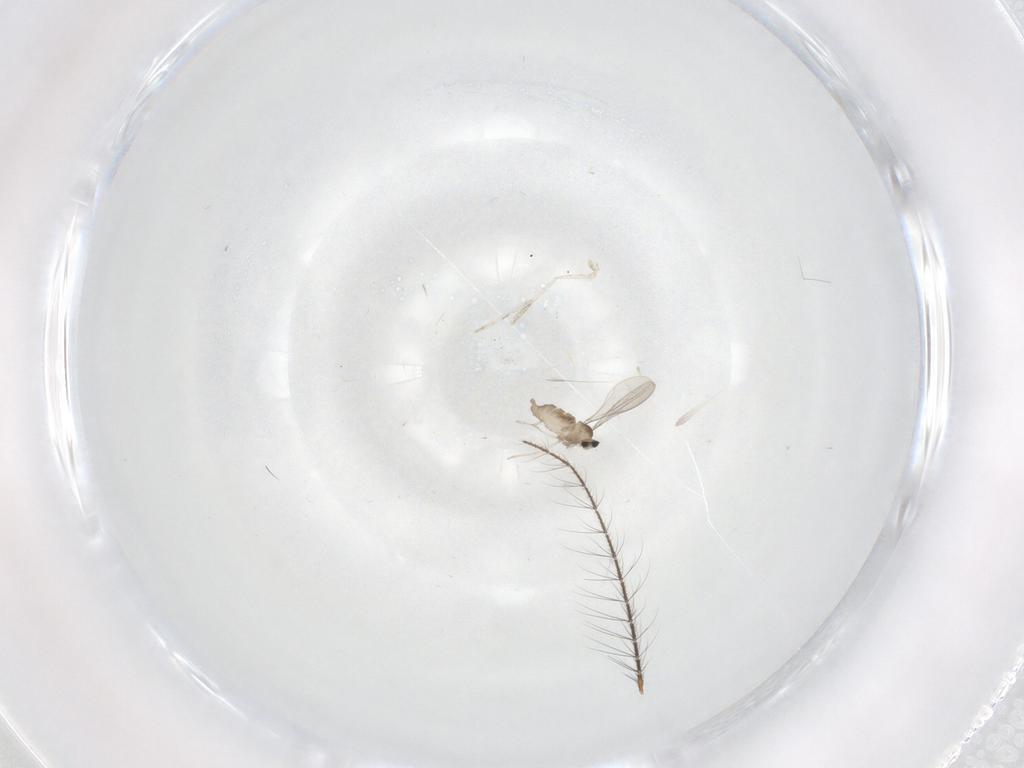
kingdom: Animalia
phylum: Arthropoda
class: Insecta
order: Diptera
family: Cecidomyiidae
